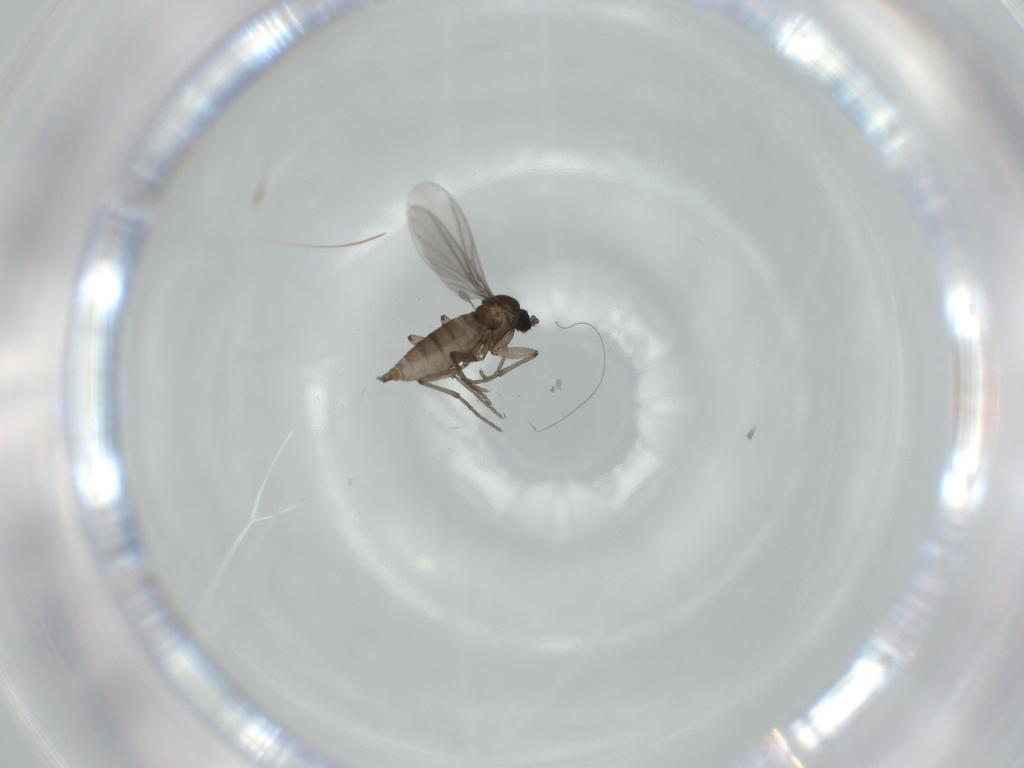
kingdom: Animalia
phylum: Arthropoda
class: Insecta
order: Diptera
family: Sciaridae
